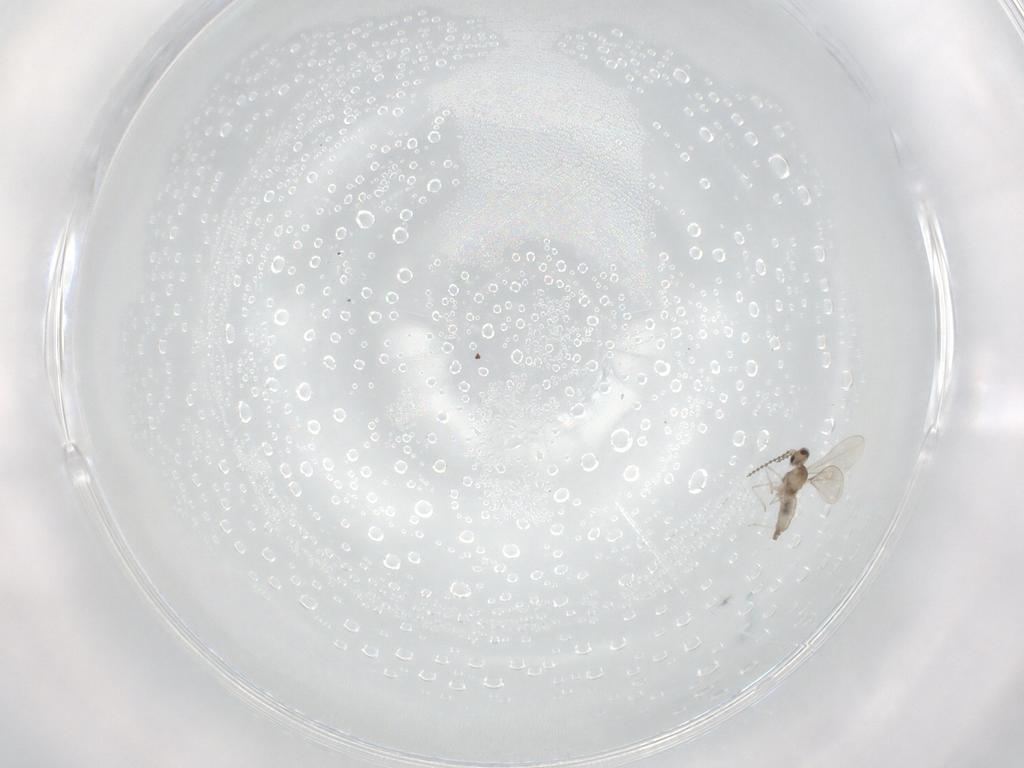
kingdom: Animalia
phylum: Arthropoda
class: Insecta
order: Diptera
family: Cecidomyiidae
